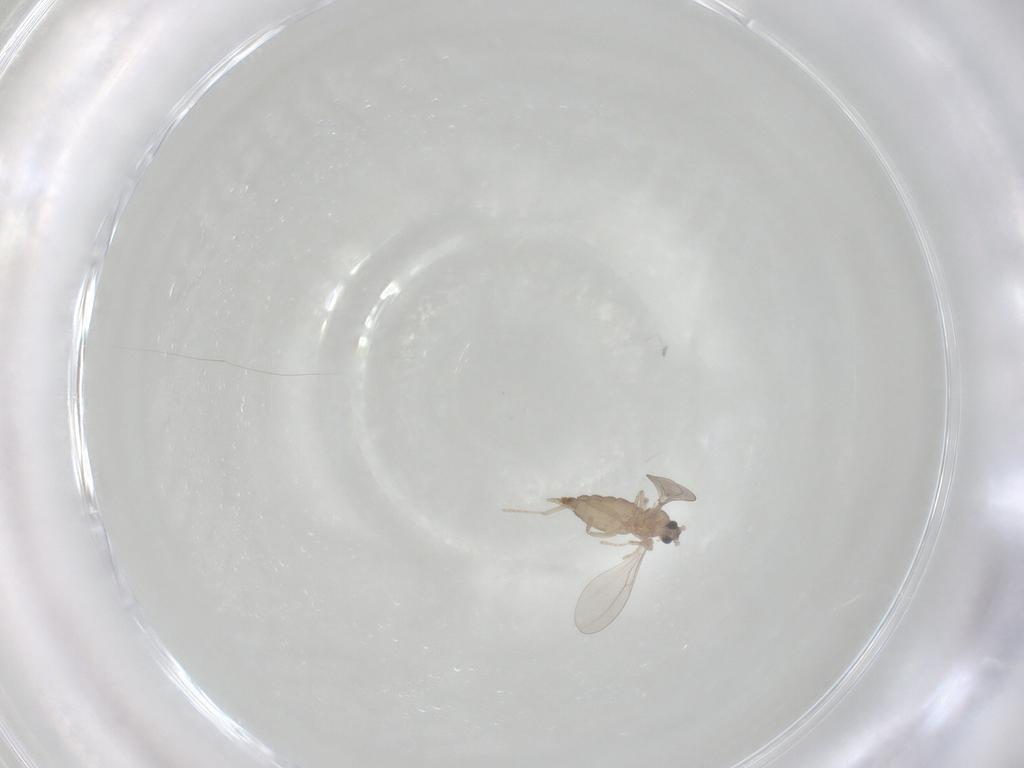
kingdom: Animalia
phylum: Arthropoda
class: Insecta
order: Diptera
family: Cecidomyiidae
